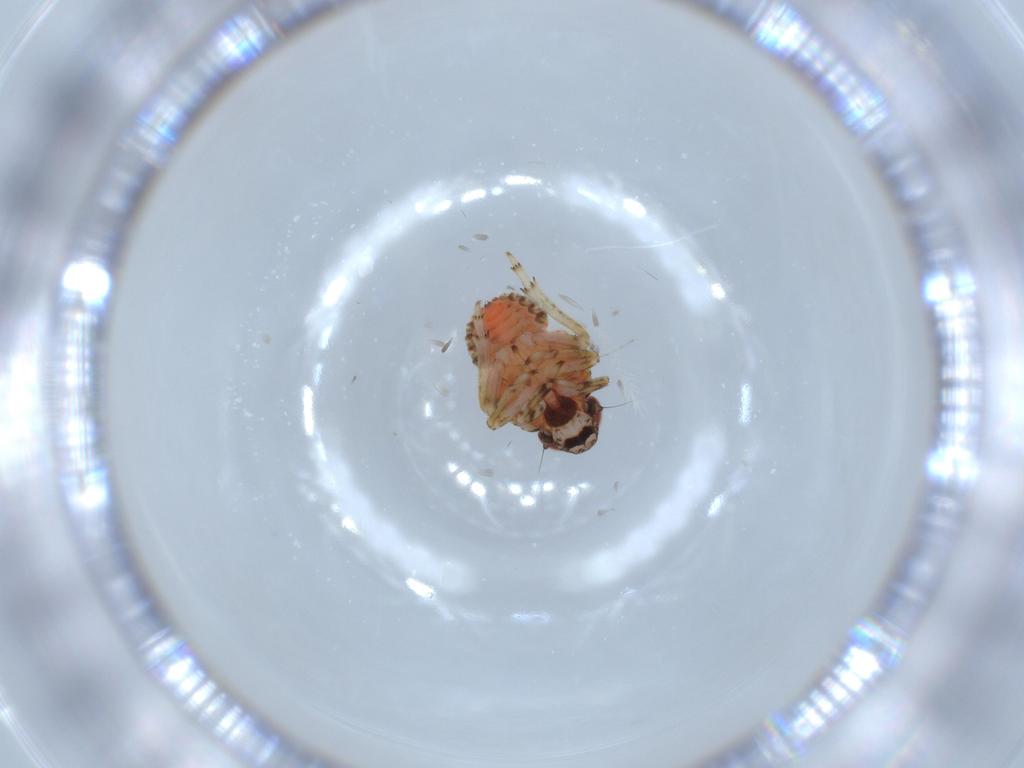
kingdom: Animalia
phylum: Arthropoda
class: Insecta
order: Hemiptera
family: Issidae
